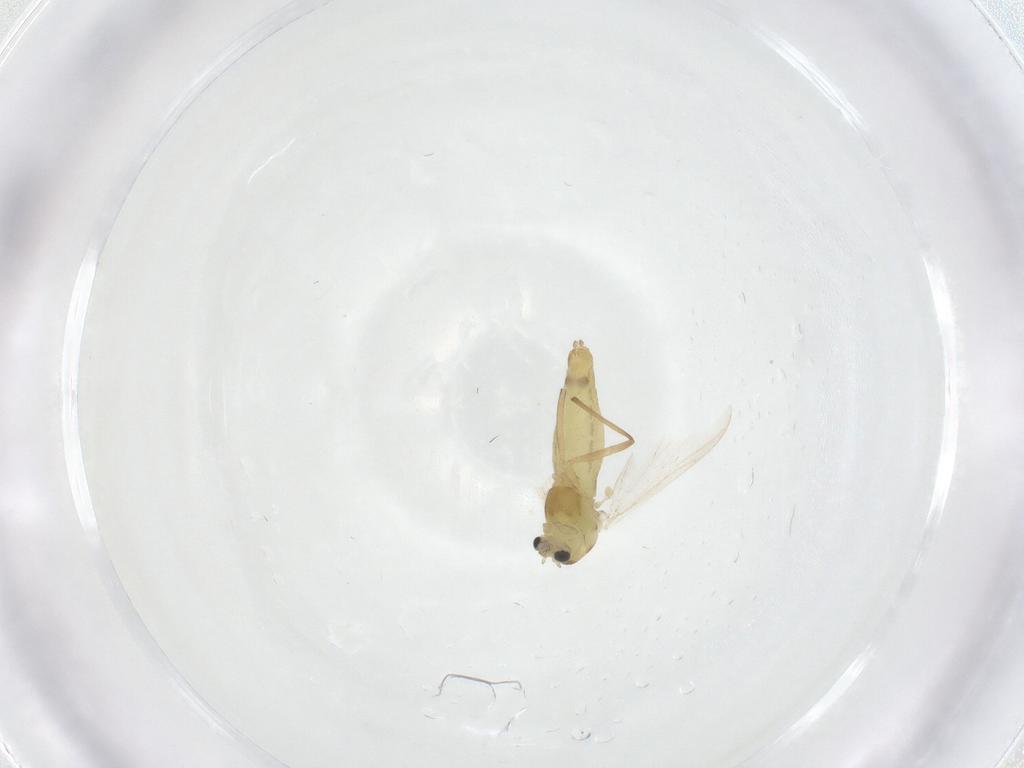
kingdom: Animalia
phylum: Arthropoda
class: Insecta
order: Diptera
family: Chironomidae
